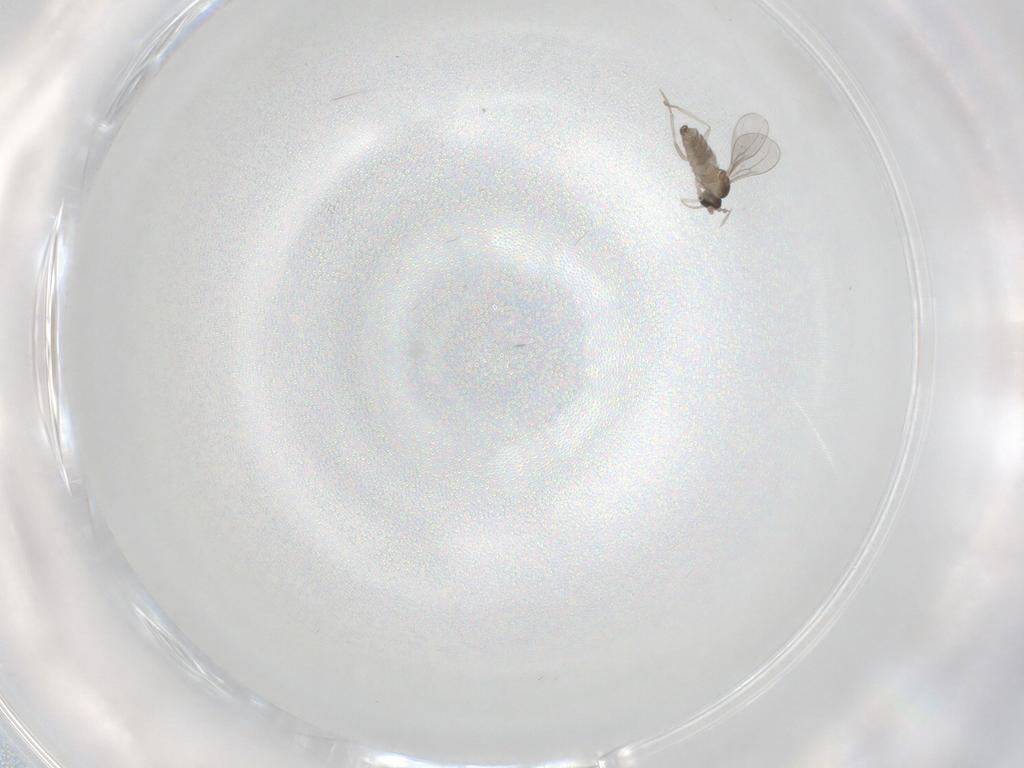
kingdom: Animalia
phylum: Arthropoda
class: Insecta
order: Diptera
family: Cecidomyiidae
